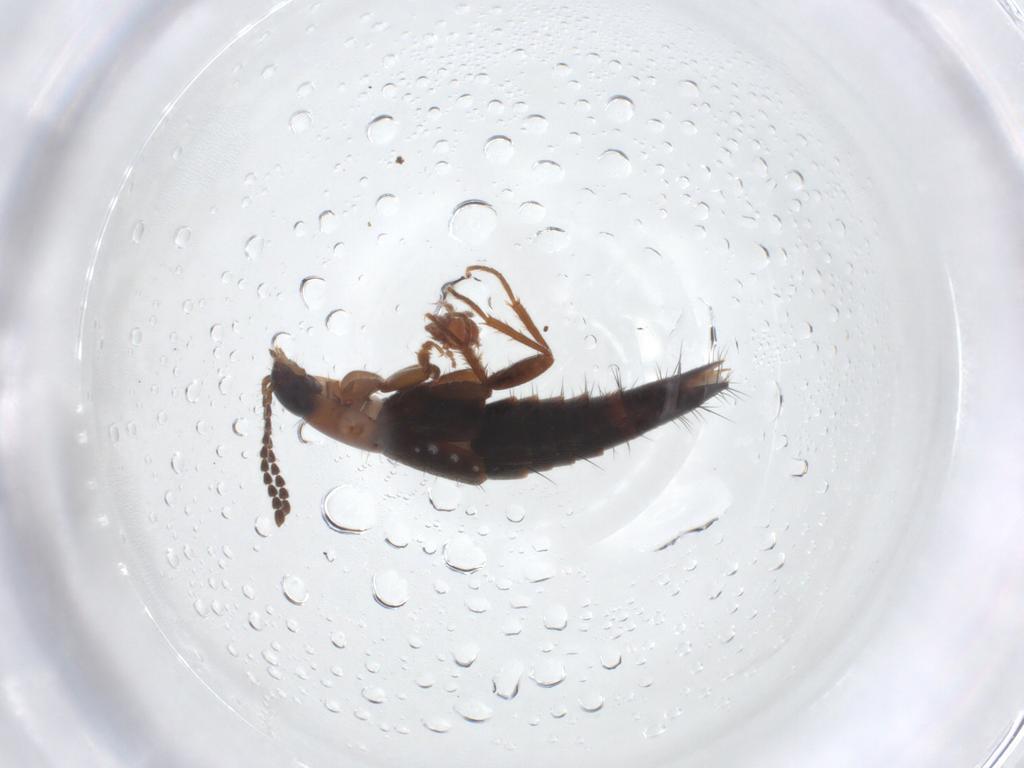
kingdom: Animalia
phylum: Arthropoda
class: Insecta
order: Coleoptera
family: Staphylinidae
